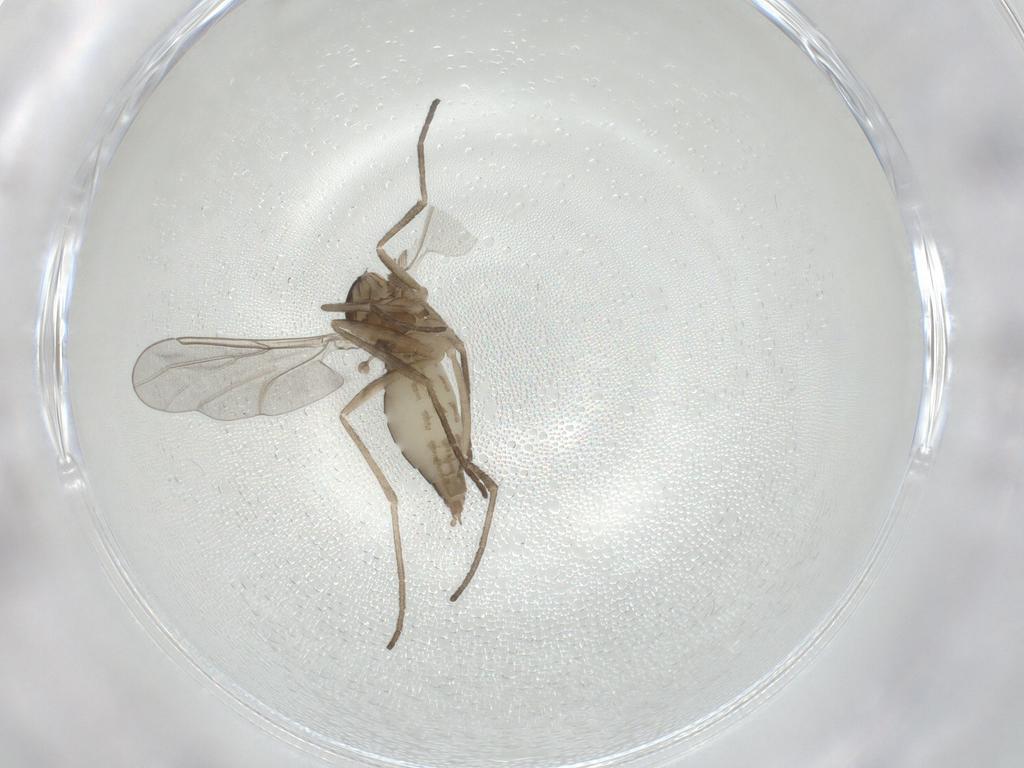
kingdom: Animalia
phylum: Arthropoda
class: Insecta
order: Diptera
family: Cecidomyiidae
